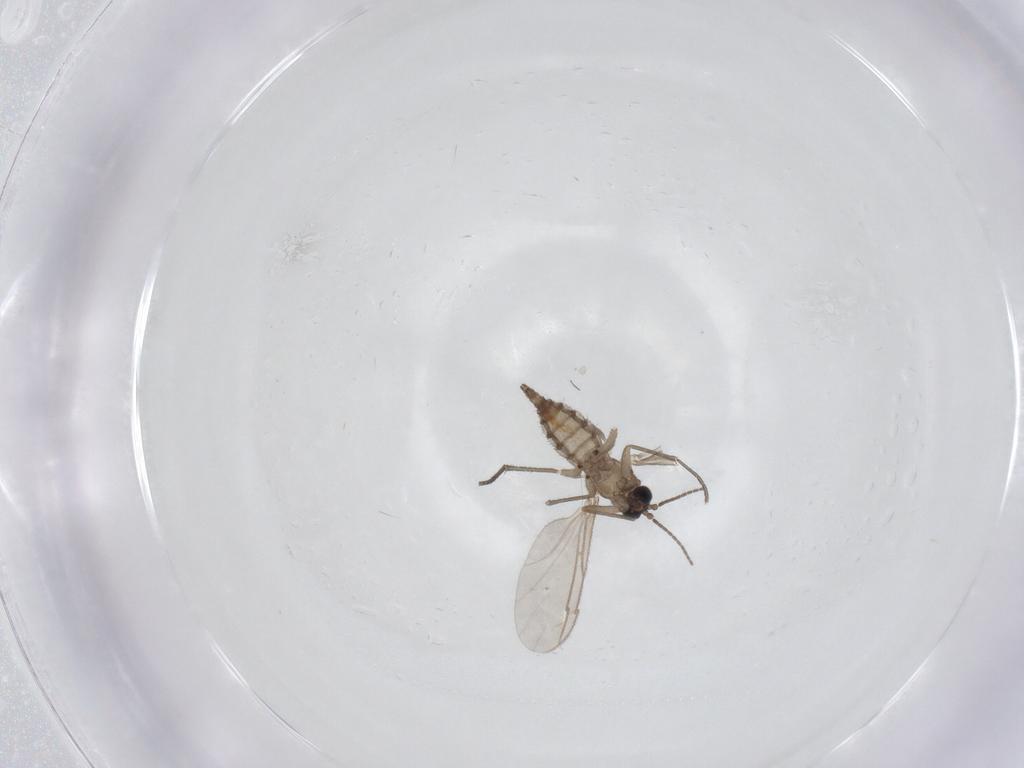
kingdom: Animalia
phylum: Arthropoda
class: Insecta
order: Diptera
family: Sciaridae
